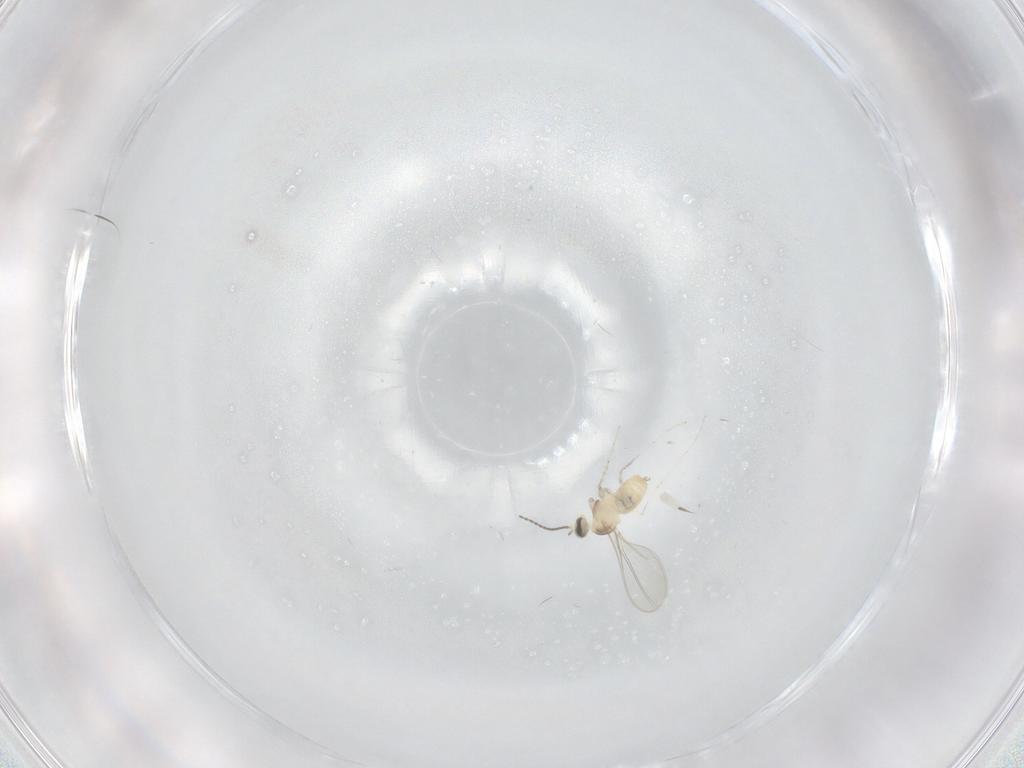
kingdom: Animalia
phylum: Arthropoda
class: Insecta
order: Diptera
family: Cecidomyiidae
